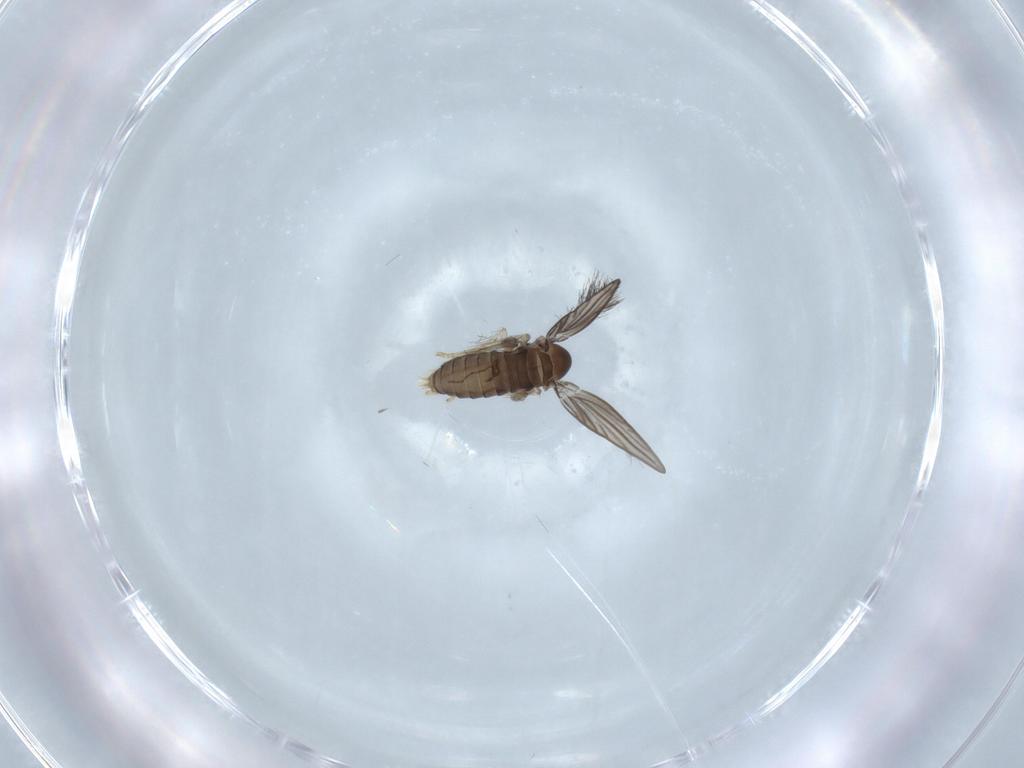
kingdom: Animalia
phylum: Arthropoda
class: Insecta
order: Diptera
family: Psychodidae
